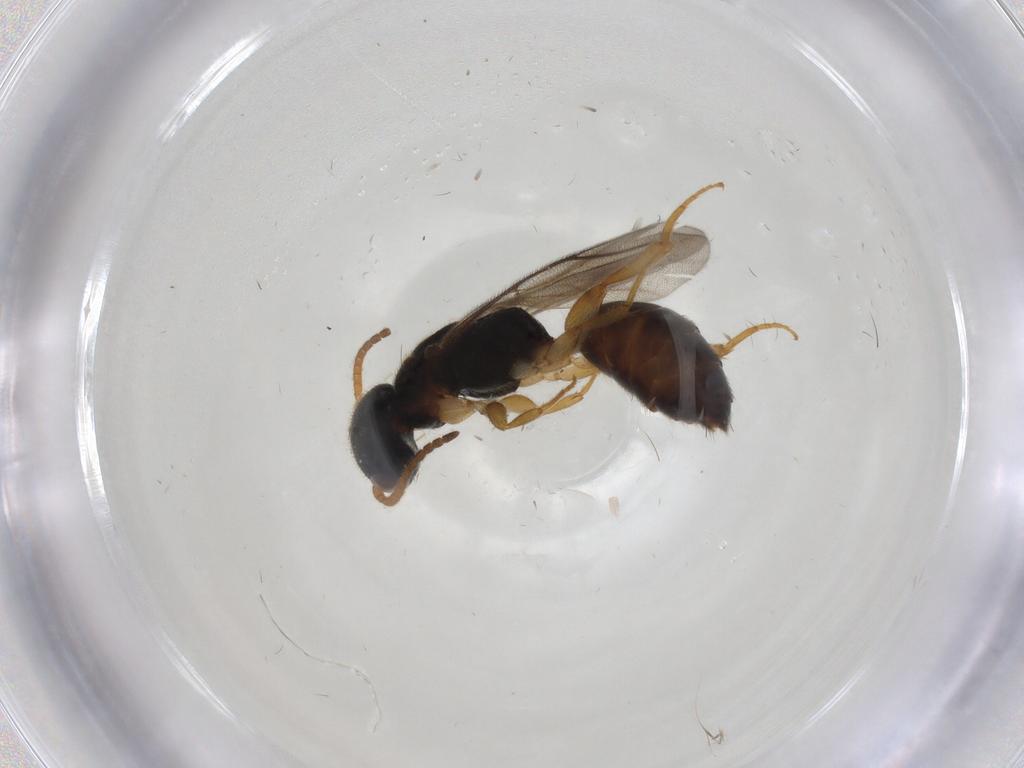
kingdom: Animalia
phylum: Arthropoda
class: Insecta
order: Hymenoptera
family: Bethylidae
